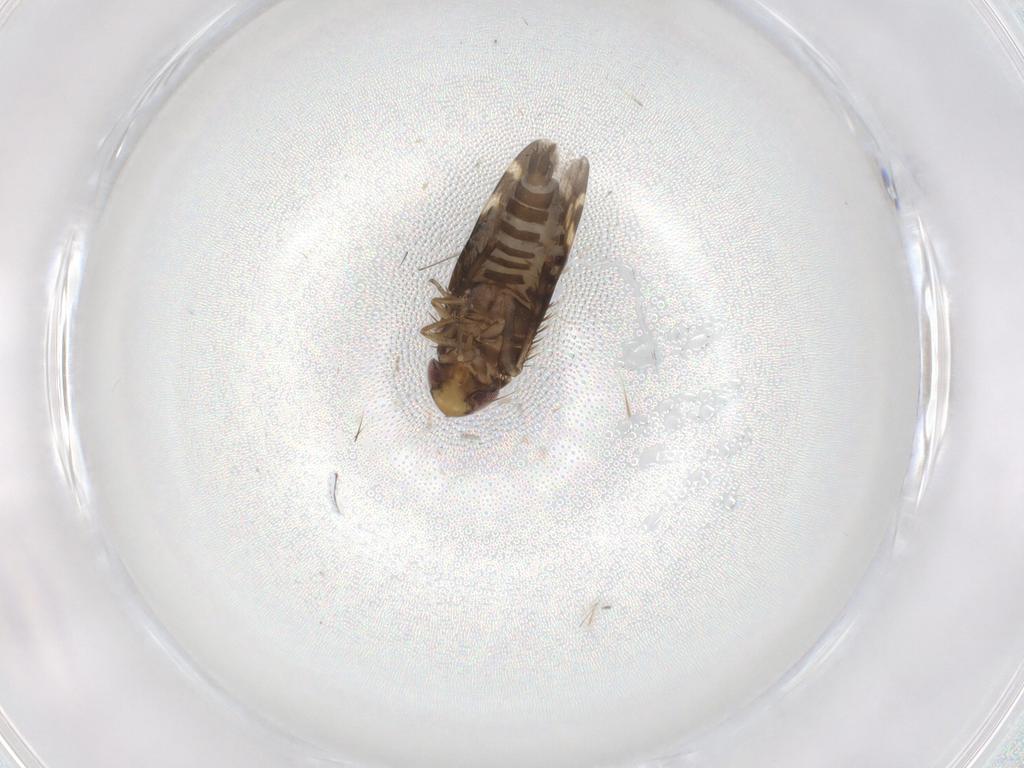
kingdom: Animalia
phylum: Arthropoda
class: Insecta
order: Hemiptera
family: Cicadellidae
